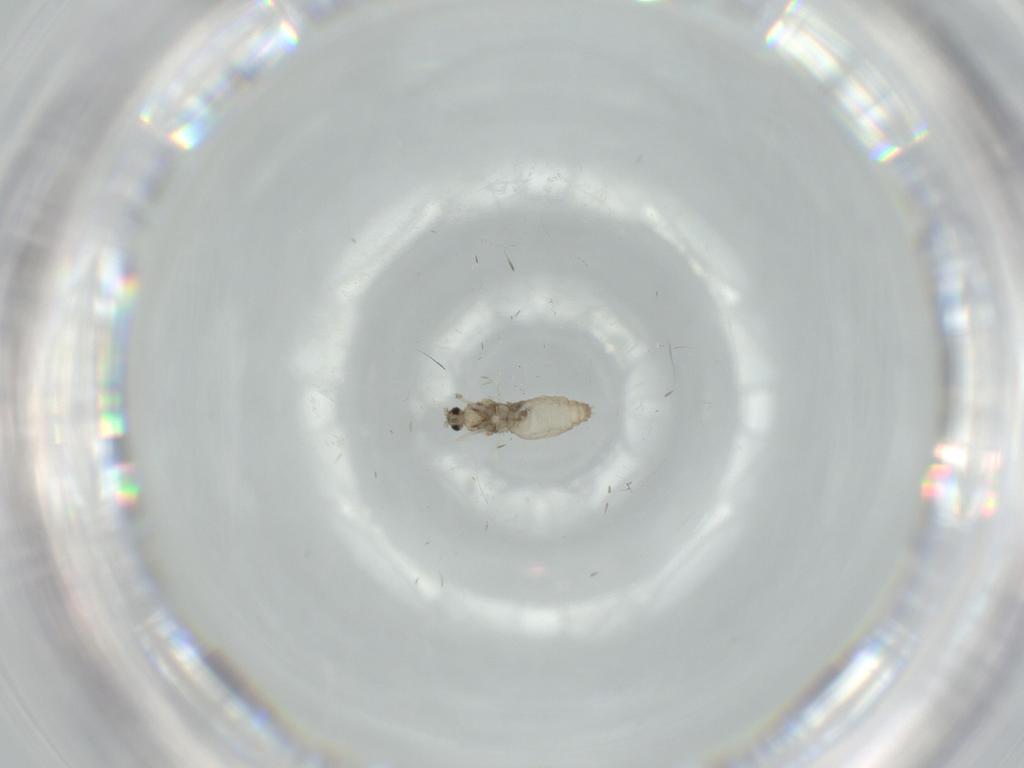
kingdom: Animalia
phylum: Arthropoda
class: Insecta
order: Diptera
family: Cecidomyiidae
